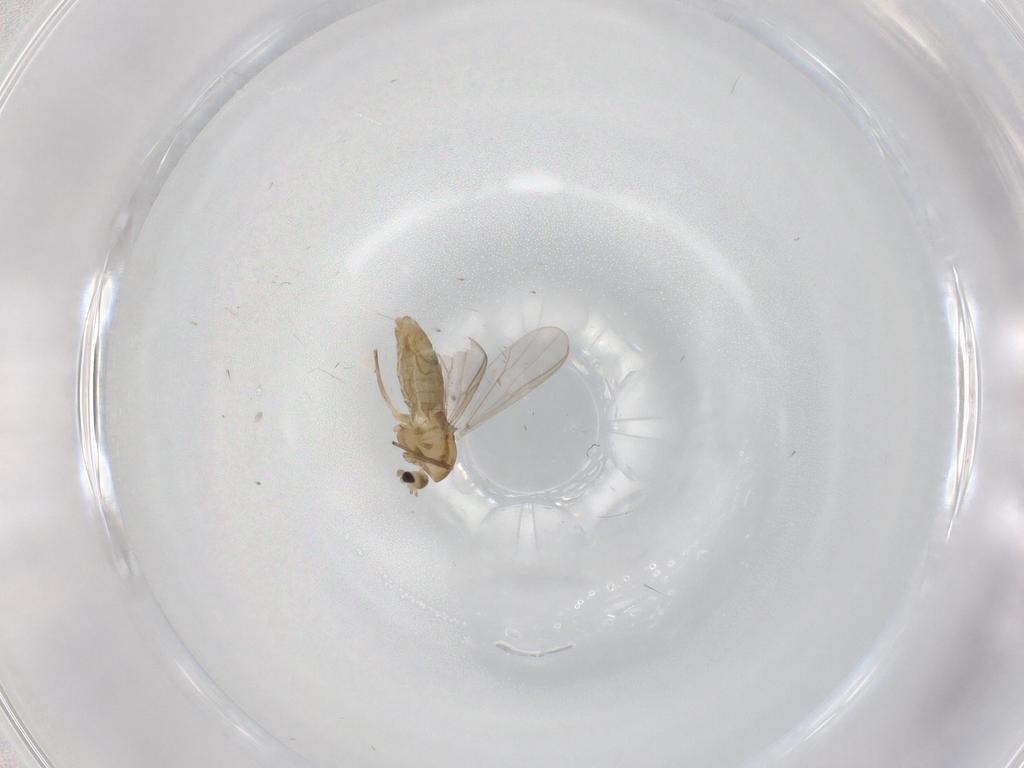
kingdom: Animalia
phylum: Arthropoda
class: Insecta
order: Diptera
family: Chironomidae
